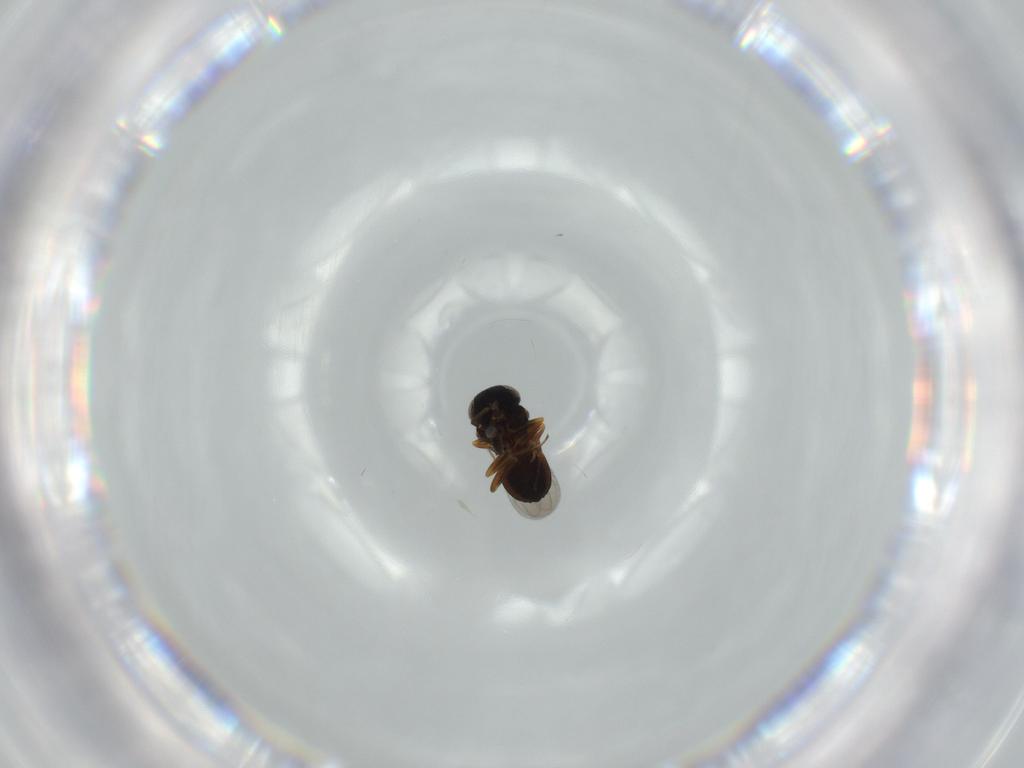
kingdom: Animalia
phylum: Arthropoda
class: Insecta
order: Hymenoptera
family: Scelionidae
